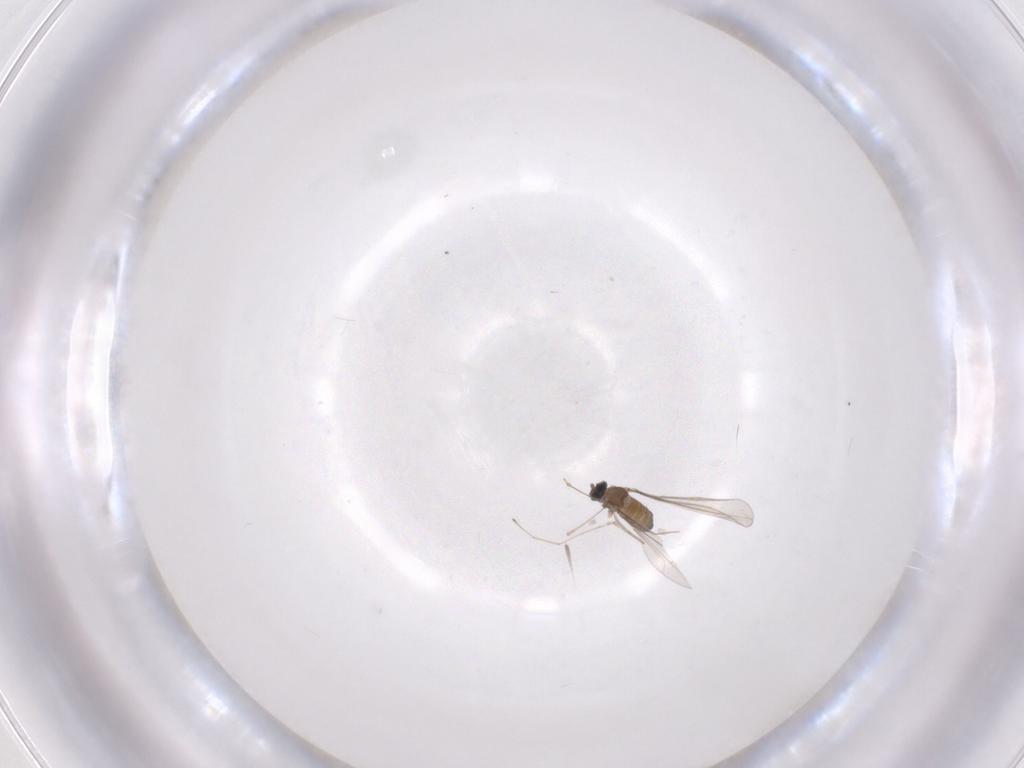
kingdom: Animalia
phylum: Arthropoda
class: Insecta
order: Diptera
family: Cecidomyiidae
